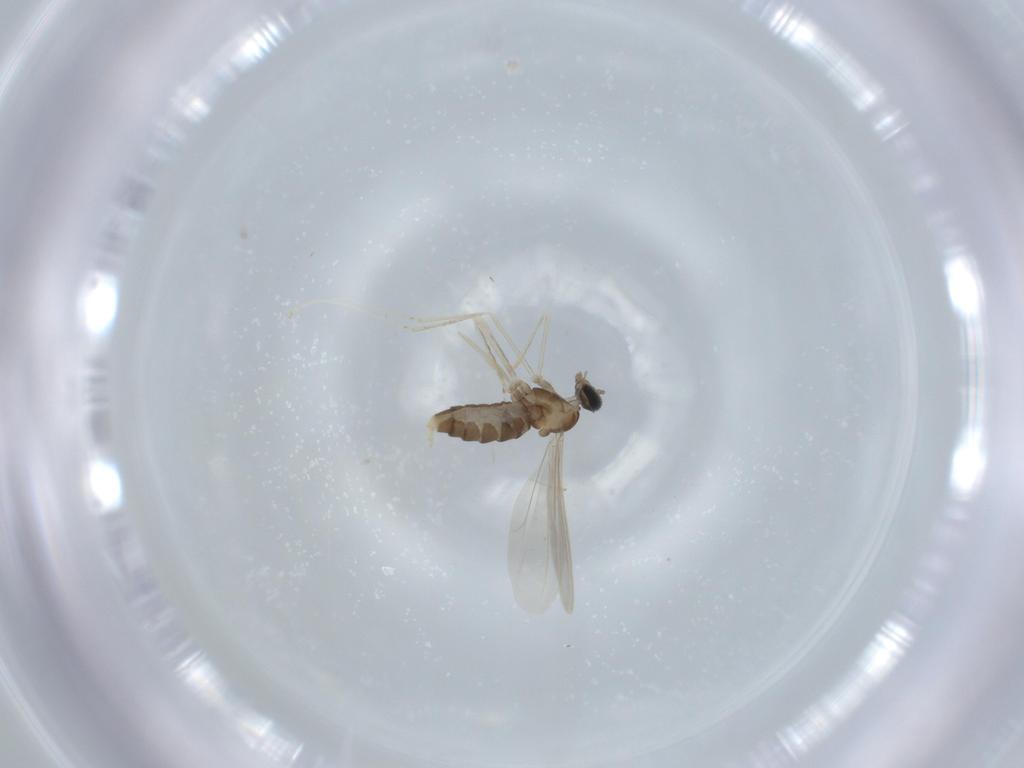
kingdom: Animalia
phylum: Arthropoda
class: Insecta
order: Diptera
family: Cecidomyiidae
